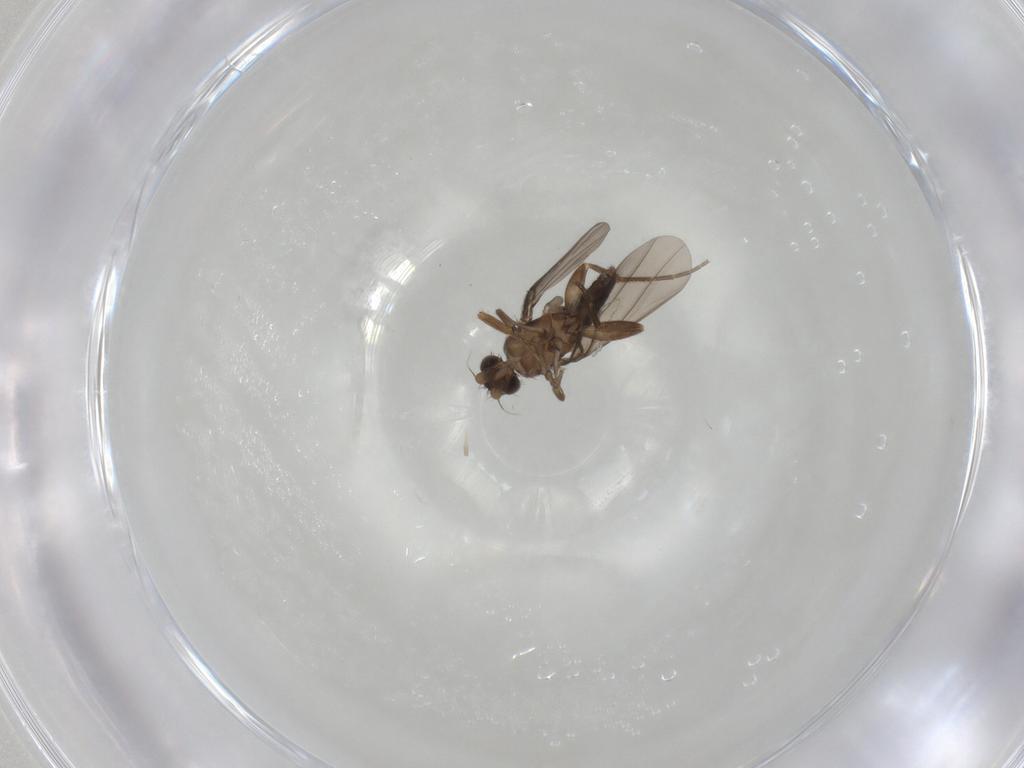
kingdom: Animalia
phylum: Arthropoda
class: Insecta
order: Diptera
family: Phoridae
